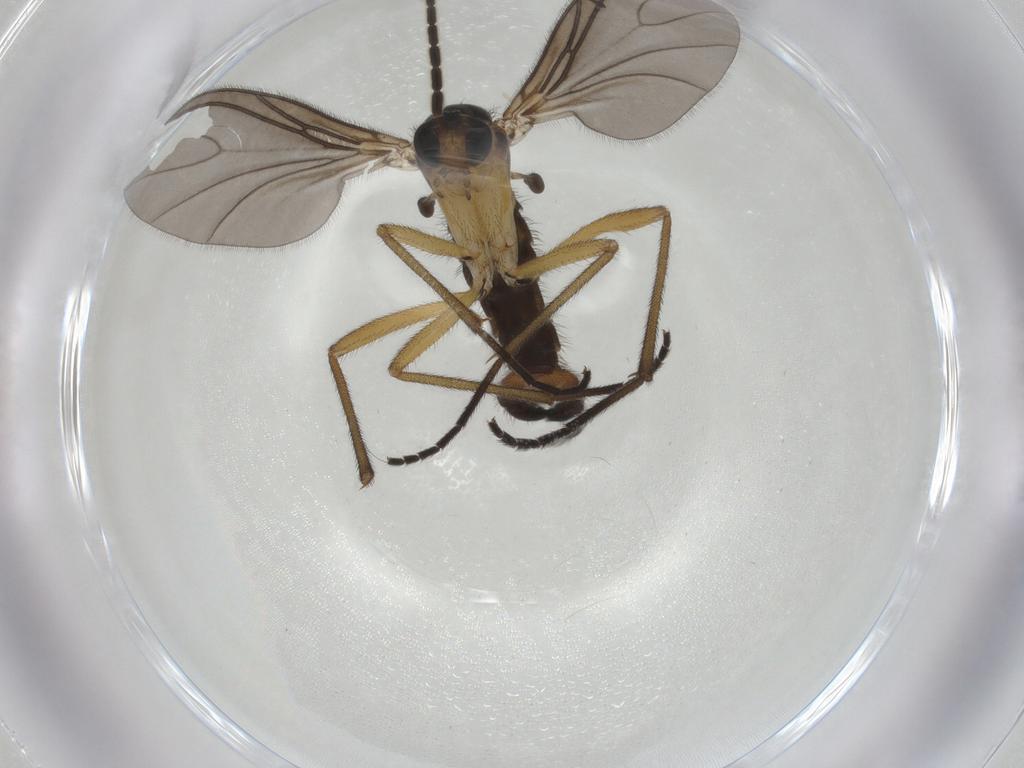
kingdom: Animalia
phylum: Arthropoda
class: Insecta
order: Diptera
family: Sciaridae
